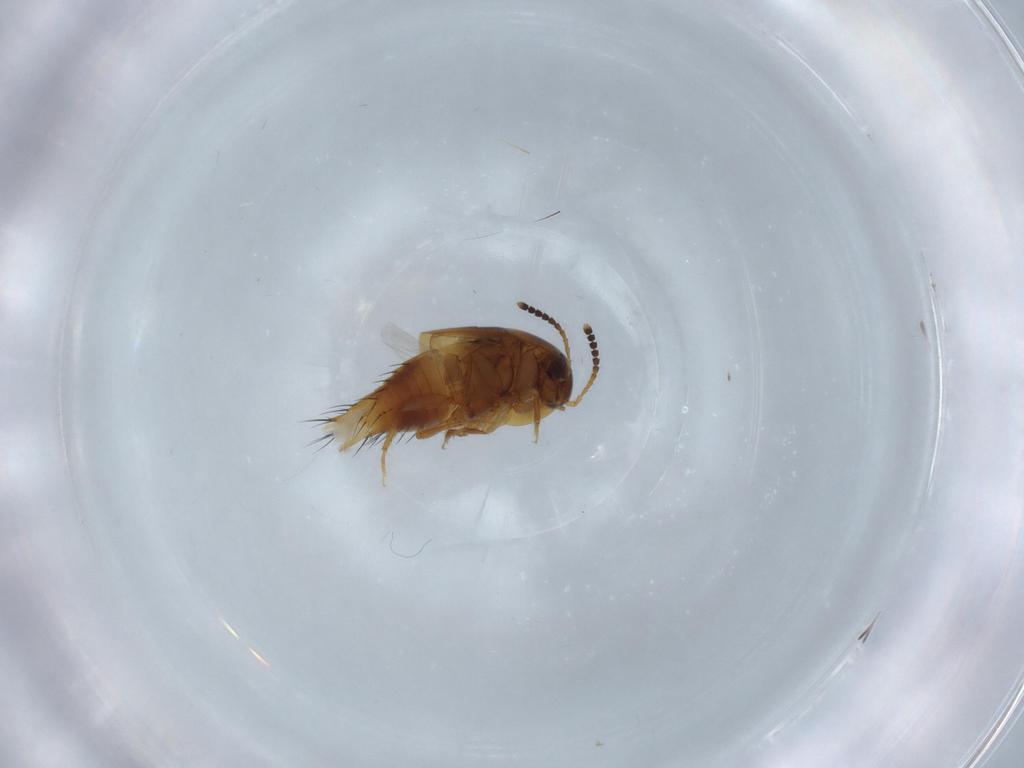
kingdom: Animalia
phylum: Arthropoda
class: Insecta
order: Coleoptera
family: Staphylinidae
